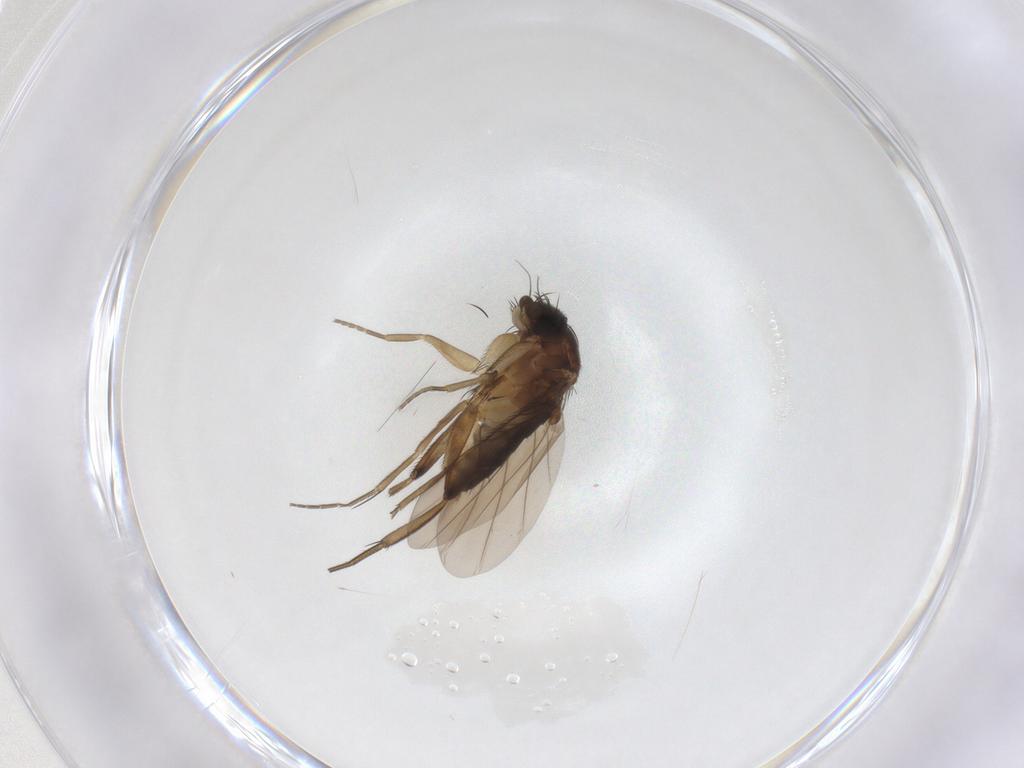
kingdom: Animalia
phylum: Arthropoda
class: Insecta
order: Diptera
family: Phoridae
